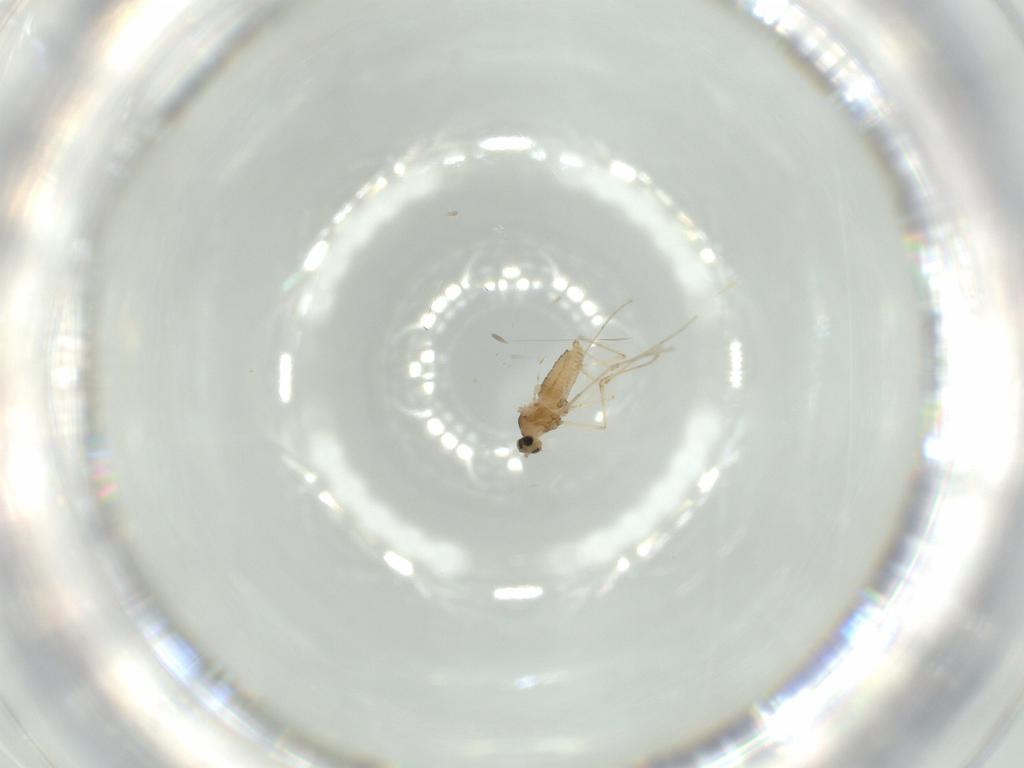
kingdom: Animalia
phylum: Arthropoda
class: Insecta
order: Diptera
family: Cecidomyiidae
